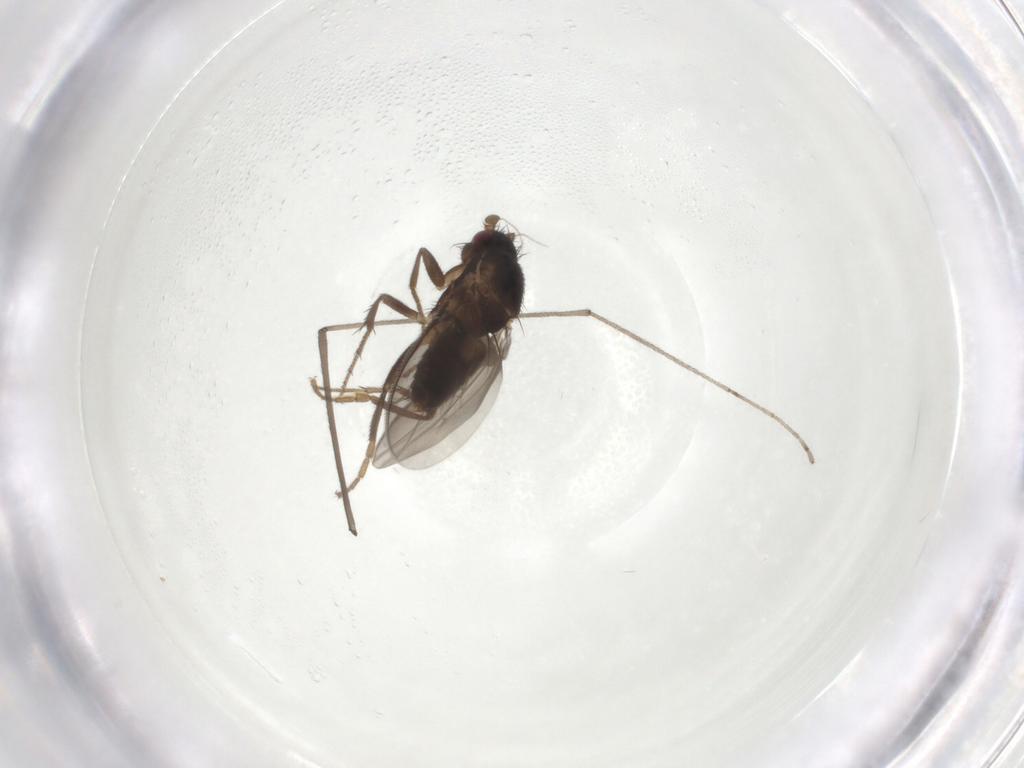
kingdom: Animalia
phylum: Arthropoda
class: Insecta
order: Diptera
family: Limoniidae
